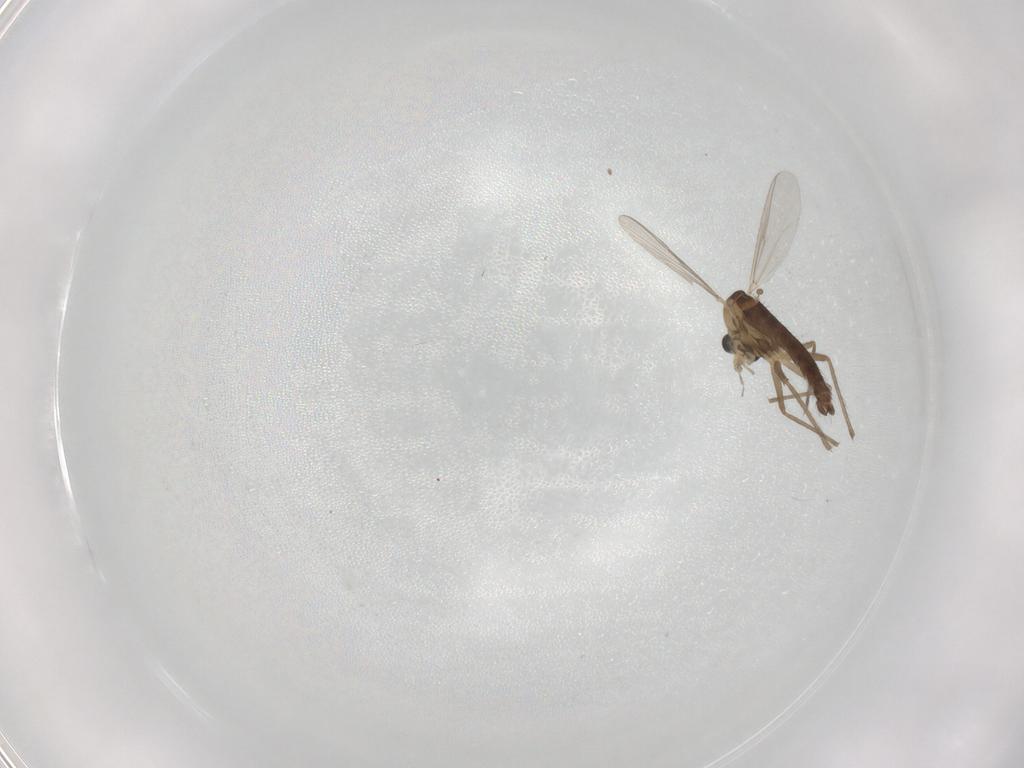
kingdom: Animalia
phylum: Arthropoda
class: Insecta
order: Diptera
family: Chironomidae
